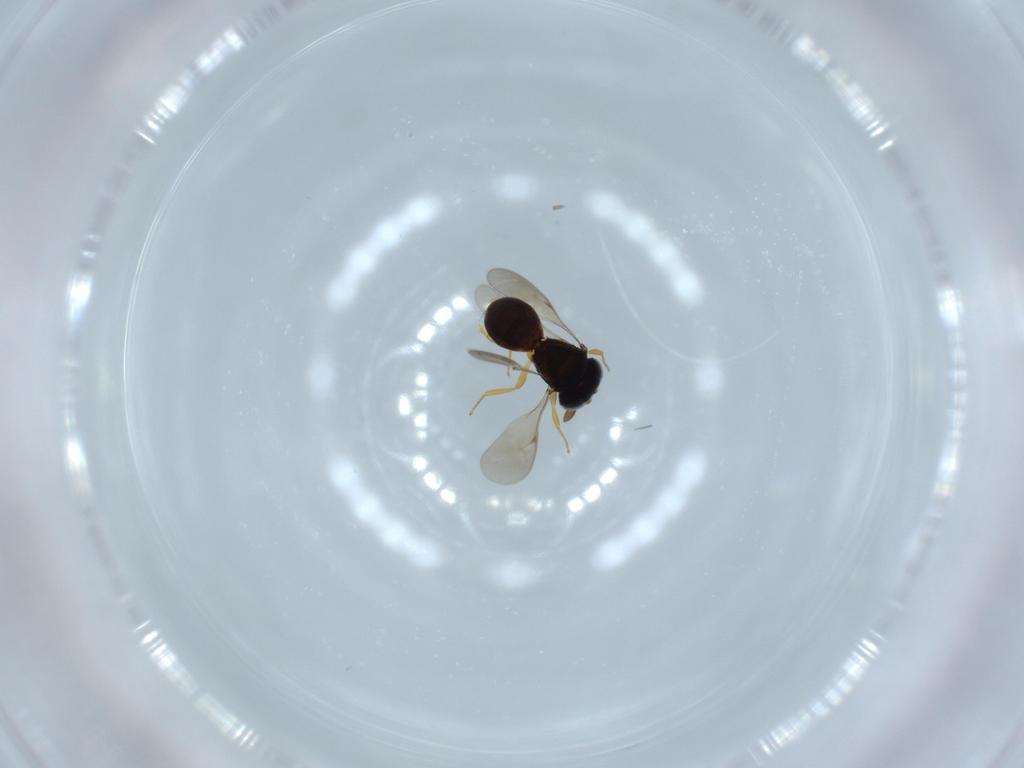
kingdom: Animalia
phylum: Arthropoda
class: Insecta
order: Hymenoptera
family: Scelionidae
